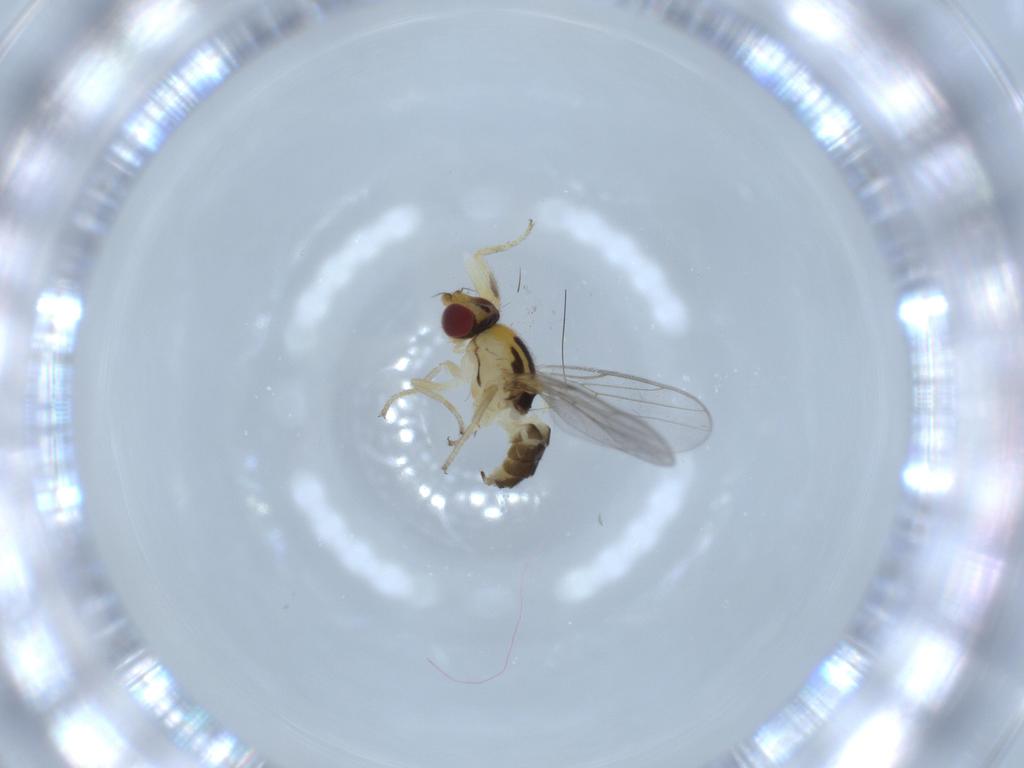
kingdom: Animalia
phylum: Arthropoda
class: Insecta
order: Diptera
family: Chloropidae
